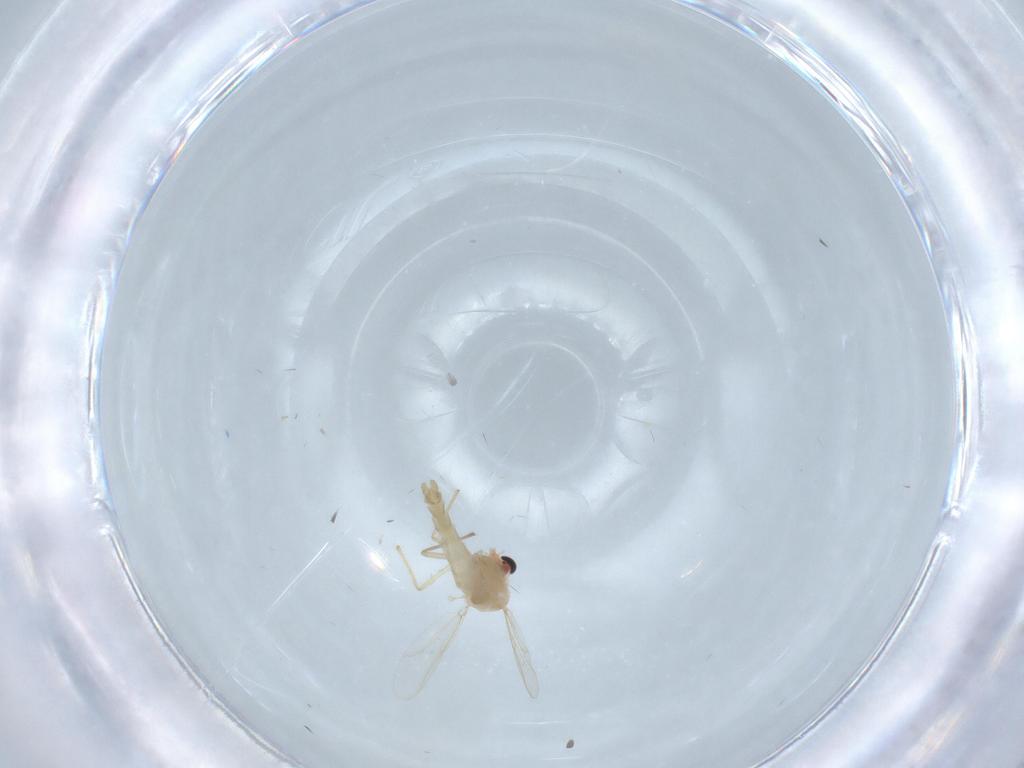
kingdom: Animalia
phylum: Arthropoda
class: Insecta
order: Diptera
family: Chironomidae
